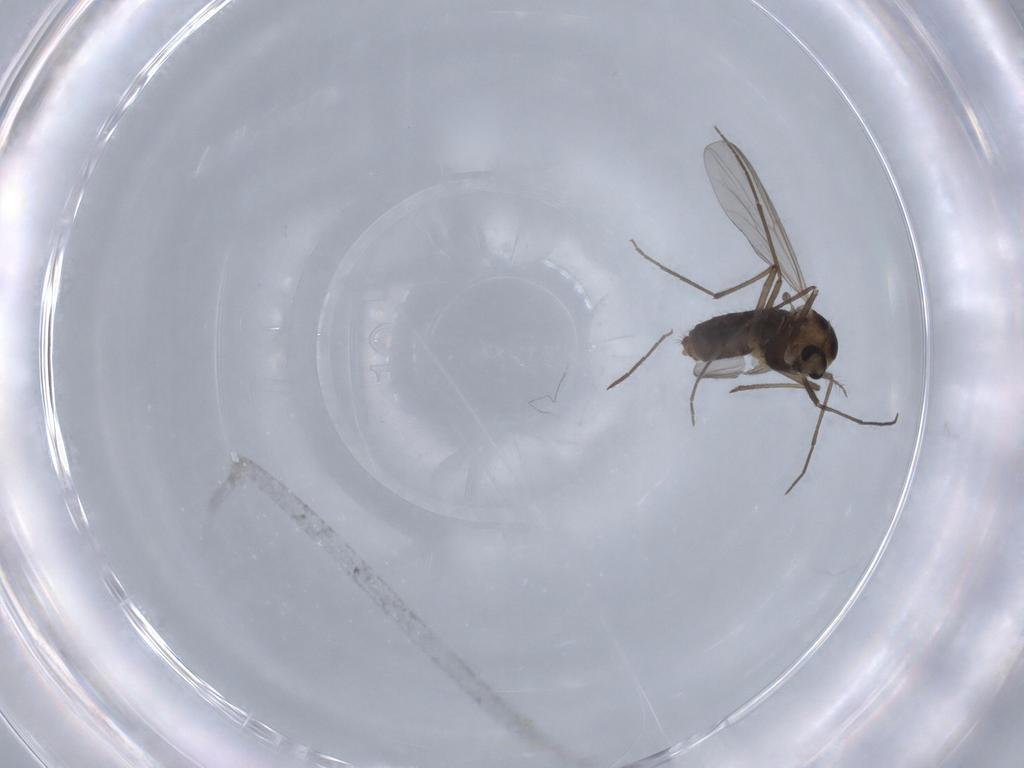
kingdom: Animalia
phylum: Arthropoda
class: Insecta
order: Diptera
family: Chironomidae
